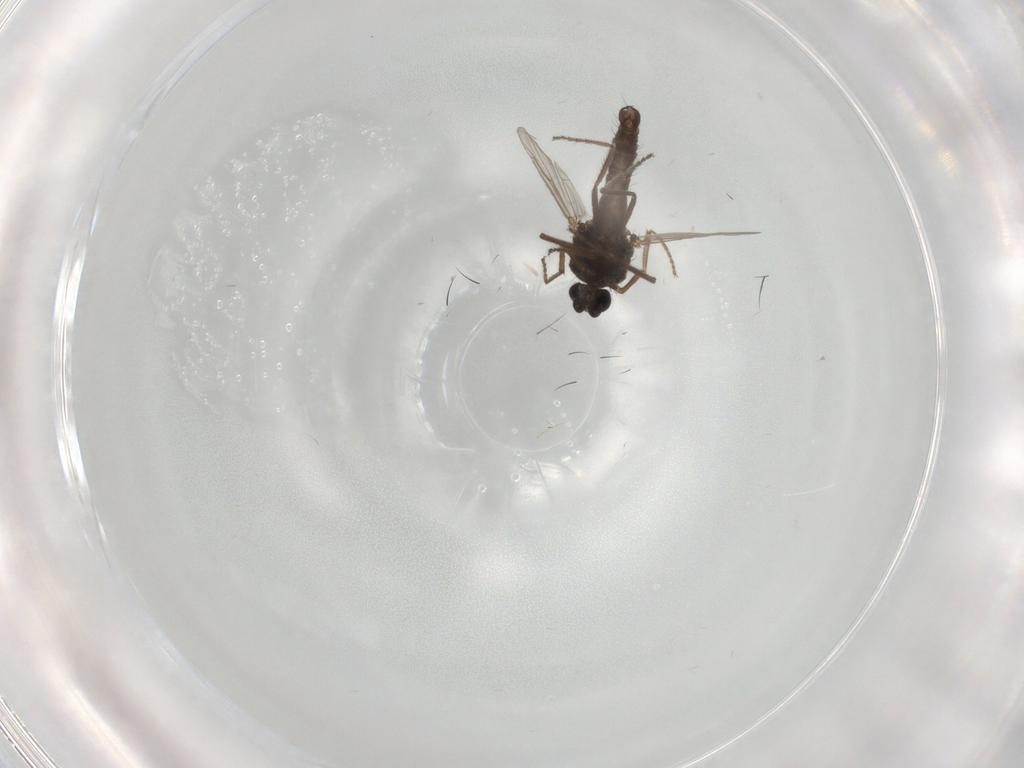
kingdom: Animalia
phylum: Arthropoda
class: Insecta
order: Diptera
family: Ceratopogonidae
